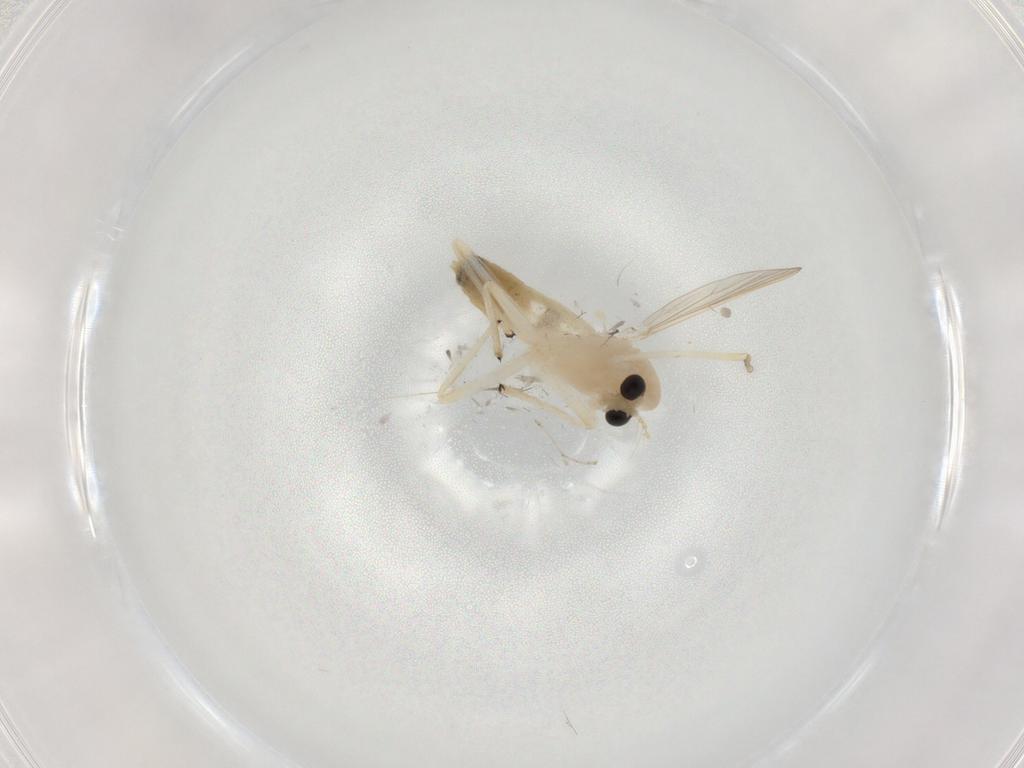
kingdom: Animalia
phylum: Arthropoda
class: Insecta
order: Diptera
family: Chironomidae
